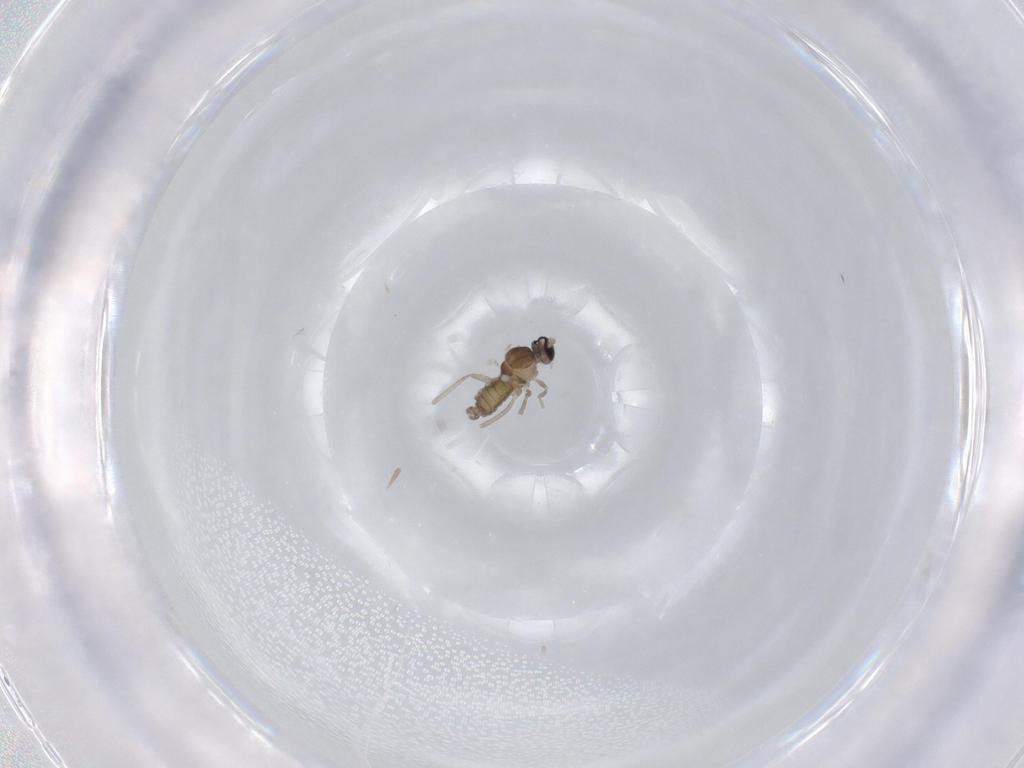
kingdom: Animalia
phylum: Arthropoda
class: Insecta
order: Diptera
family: Cecidomyiidae
